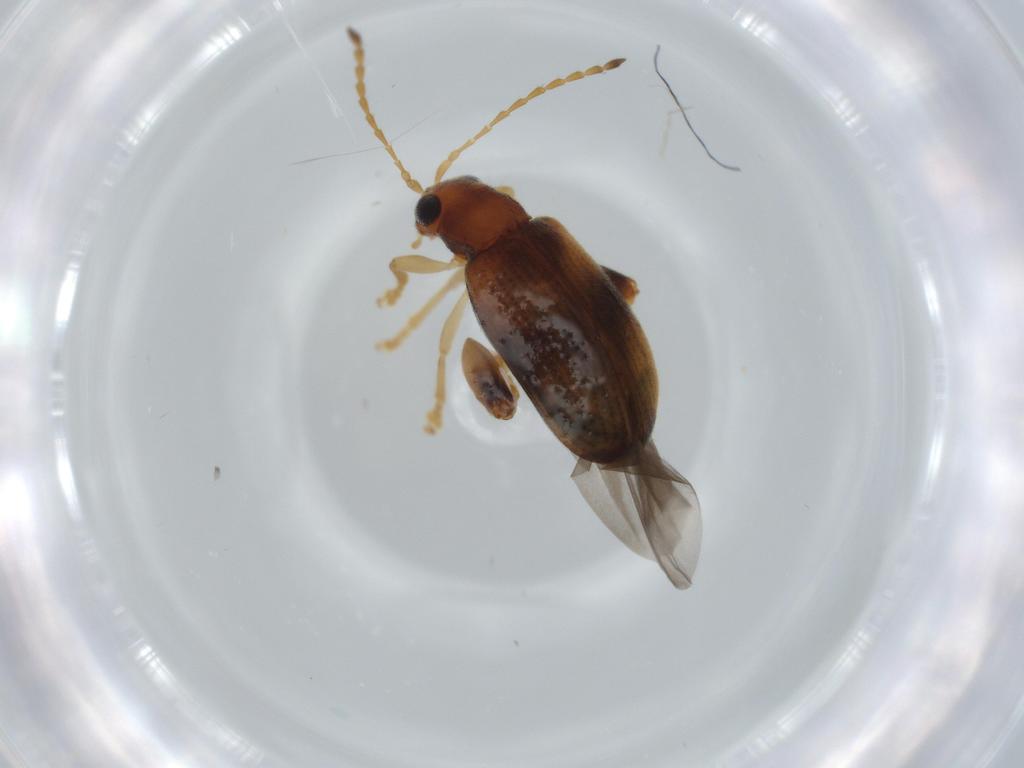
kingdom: Animalia
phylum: Arthropoda
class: Insecta
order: Coleoptera
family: Chrysomelidae
